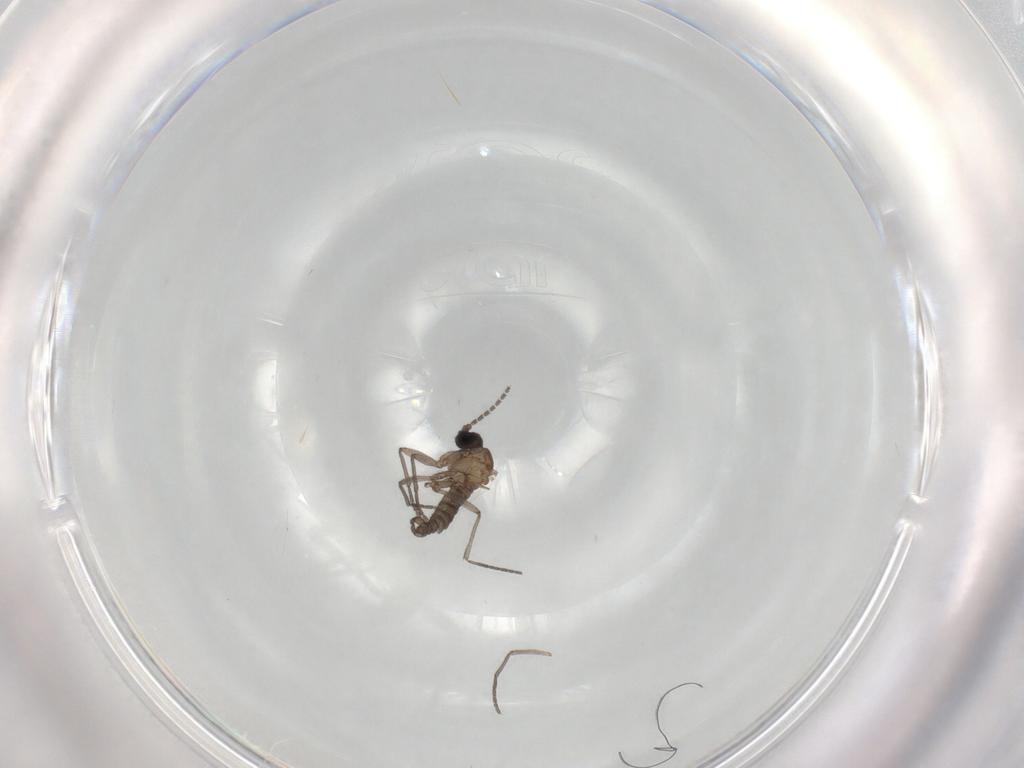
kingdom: Animalia
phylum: Arthropoda
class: Insecta
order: Diptera
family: Sciaridae
